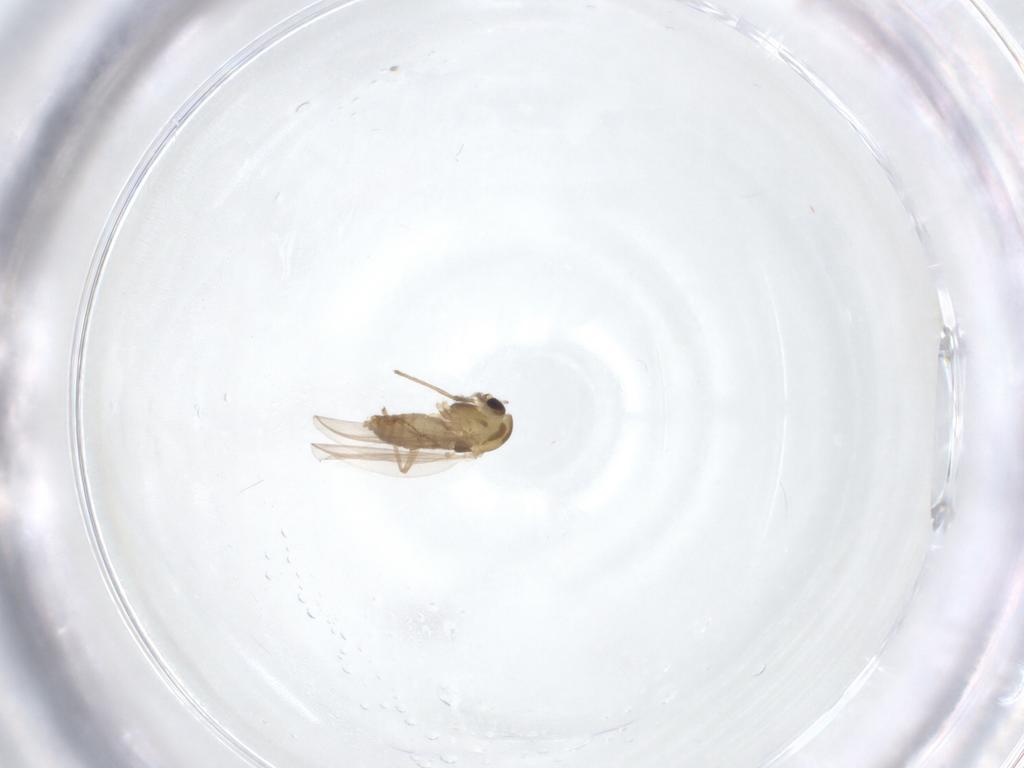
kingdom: Animalia
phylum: Arthropoda
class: Insecta
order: Diptera
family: Chironomidae
